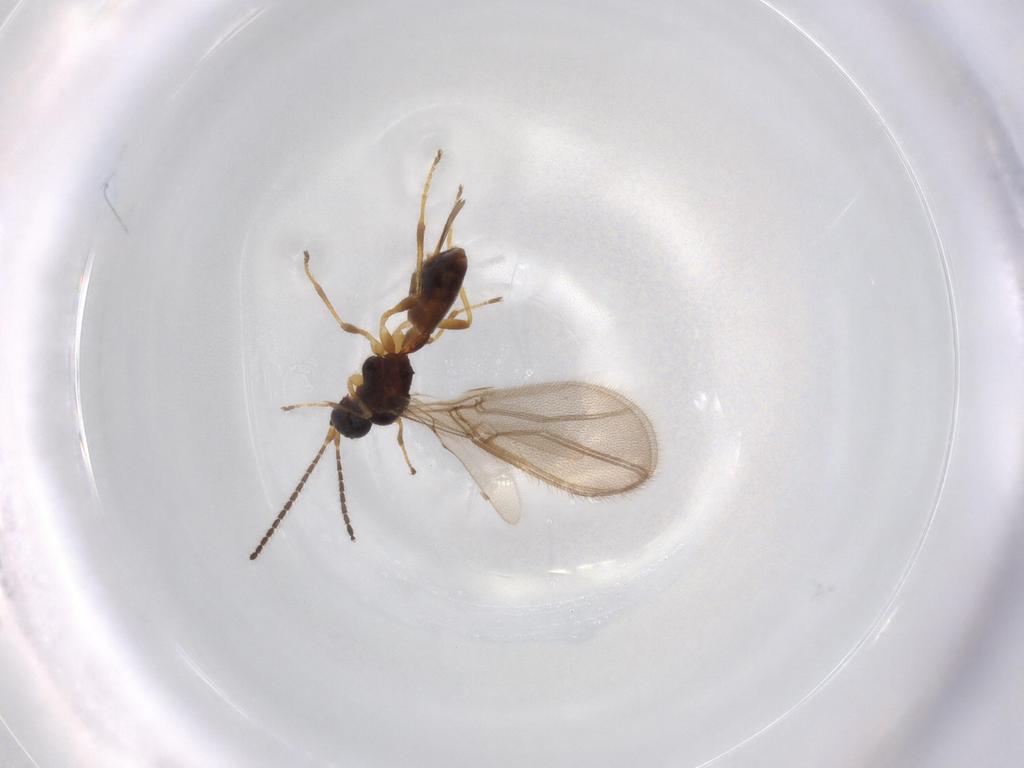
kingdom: Animalia
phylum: Arthropoda
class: Insecta
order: Hymenoptera
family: Braconidae
